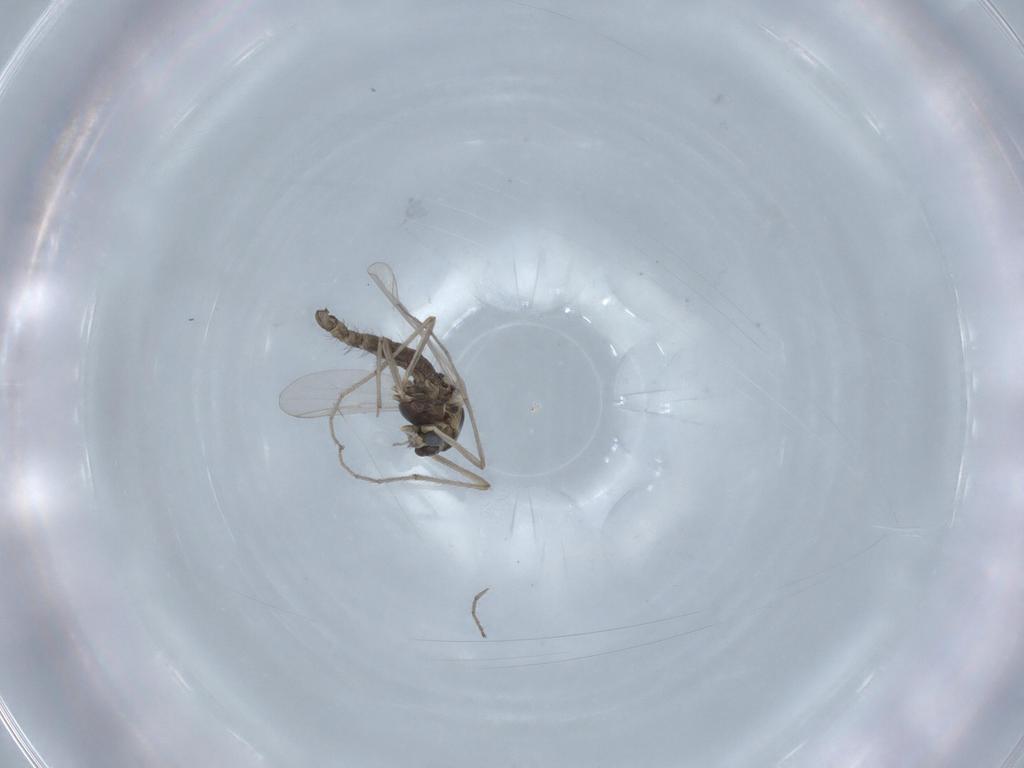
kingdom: Animalia
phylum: Arthropoda
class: Insecta
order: Diptera
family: Chironomidae
